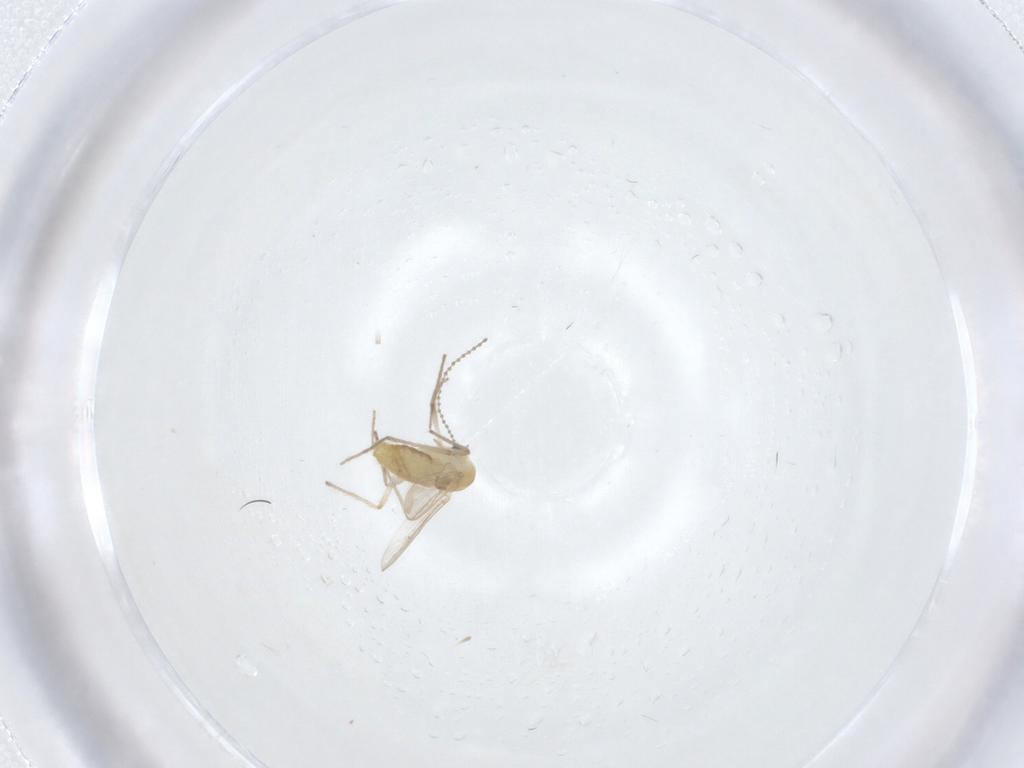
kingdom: Animalia
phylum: Arthropoda
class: Insecta
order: Diptera
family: Chironomidae
